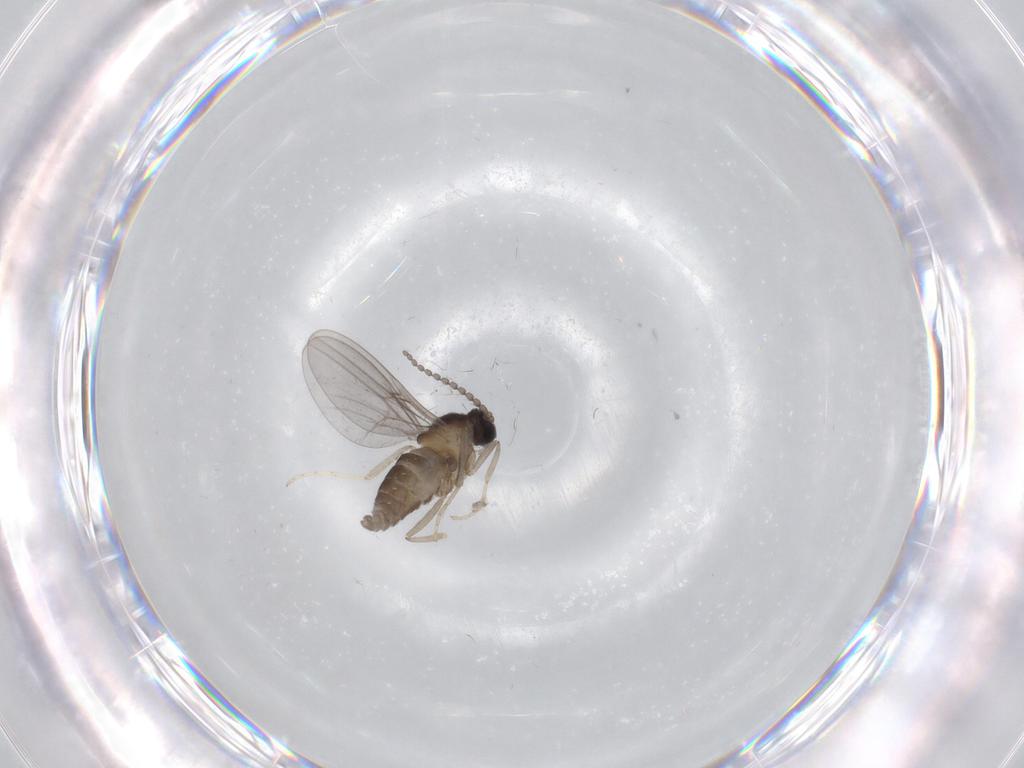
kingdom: Animalia
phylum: Arthropoda
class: Insecta
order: Diptera
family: Cecidomyiidae
